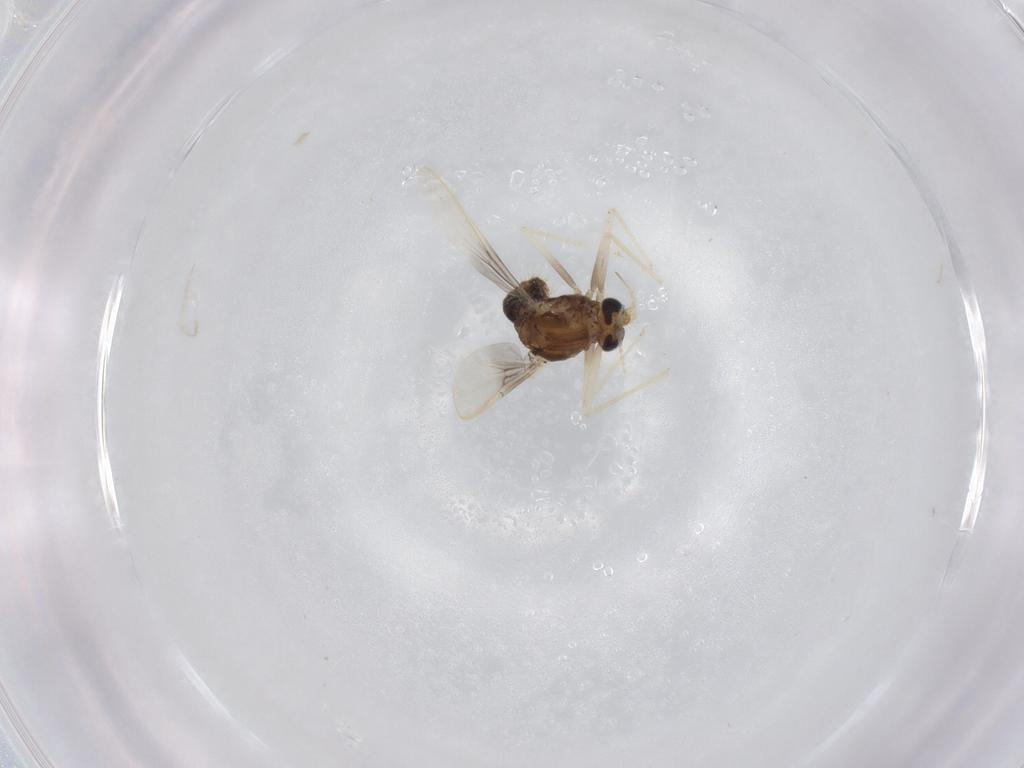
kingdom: Animalia
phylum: Arthropoda
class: Insecta
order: Diptera
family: Chironomidae
